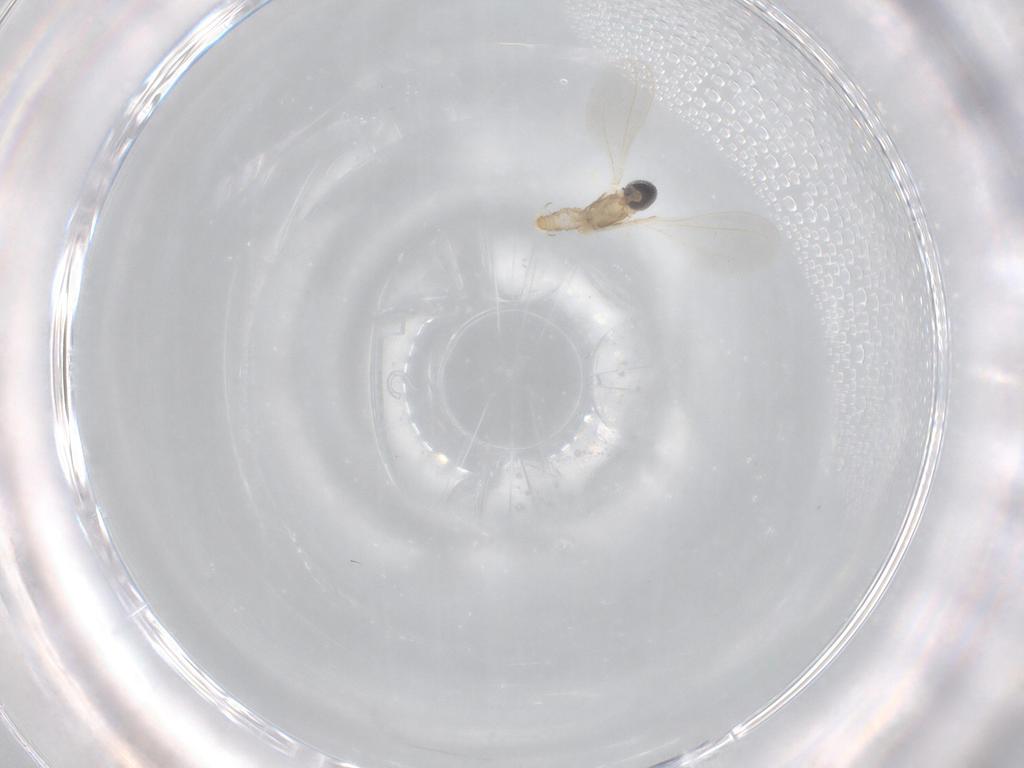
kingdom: Animalia
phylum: Arthropoda
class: Insecta
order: Diptera
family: Cecidomyiidae
